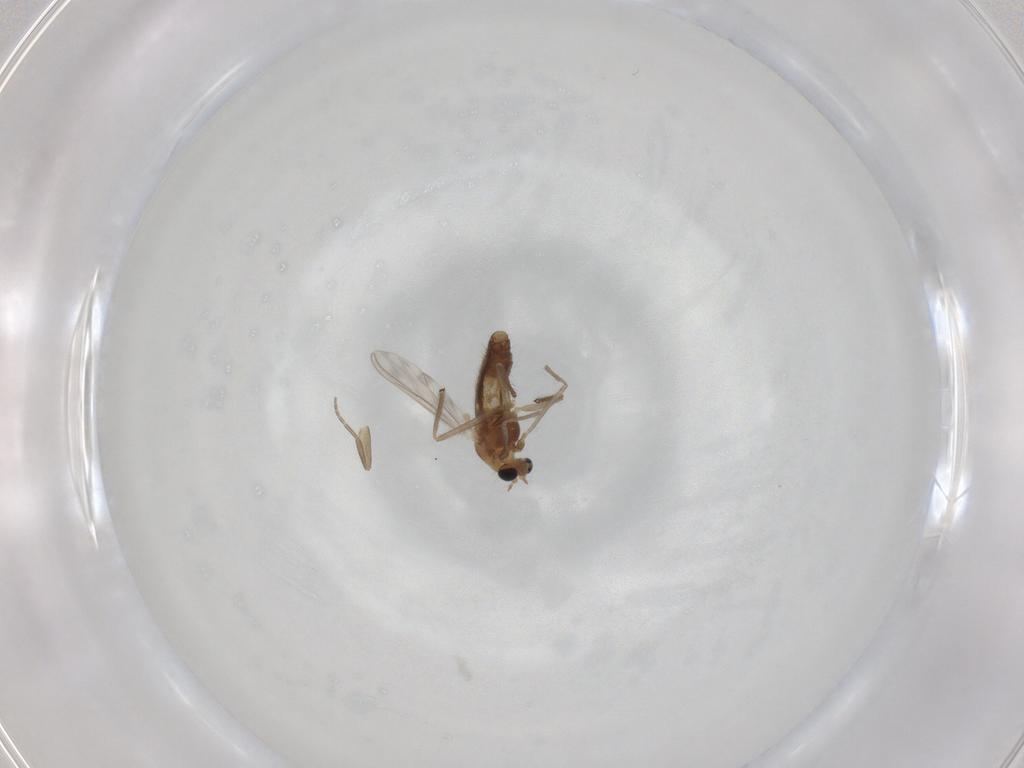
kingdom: Animalia
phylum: Arthropoda
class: Insecta
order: Diptera
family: Chironomidae
